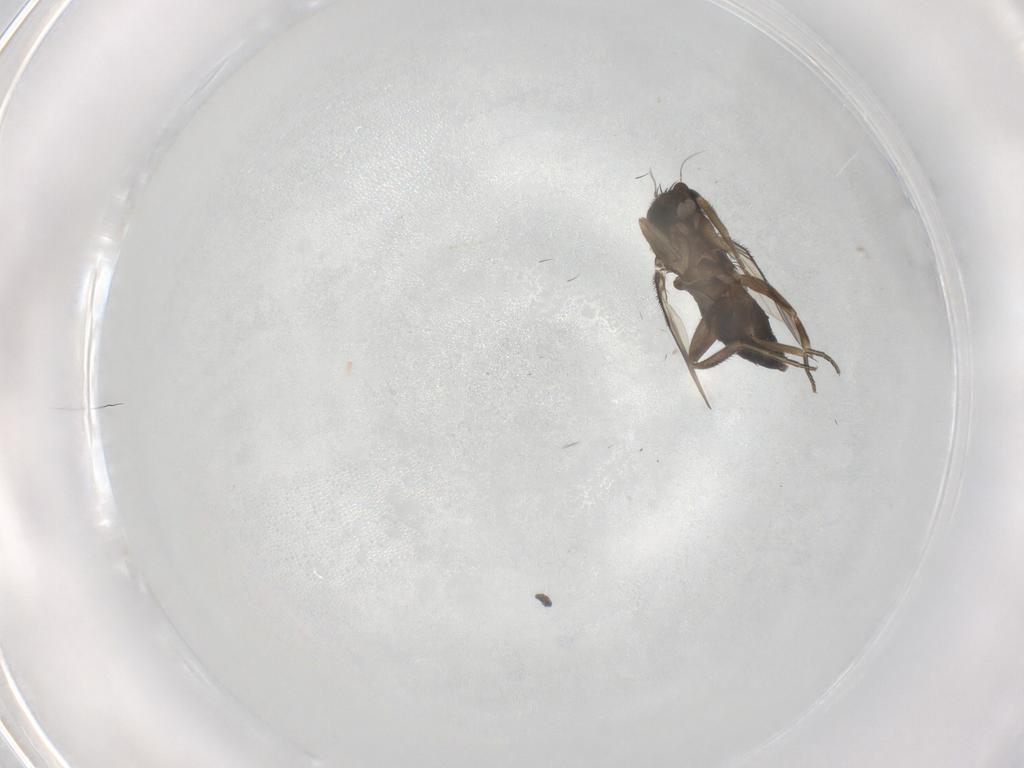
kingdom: Animalia
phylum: Arthropoda
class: Insecta
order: Diptera
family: Phoridae
